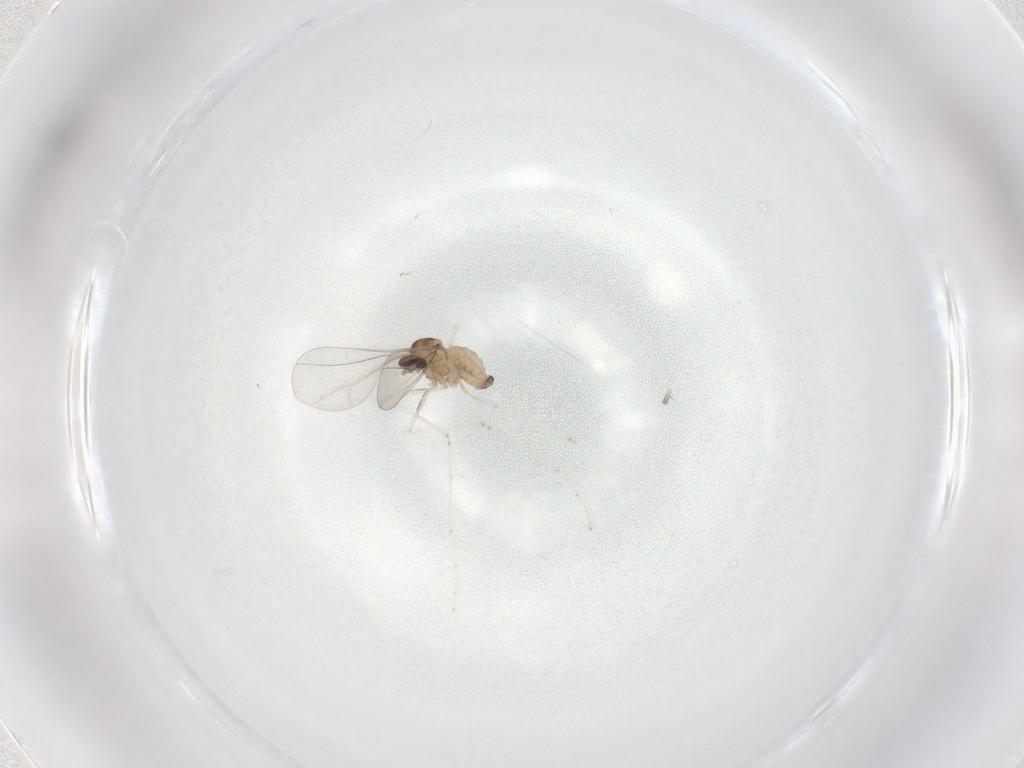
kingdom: Animalia
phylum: Arthropoda
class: Insecta
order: Diptera
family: Cecidomyiidae
